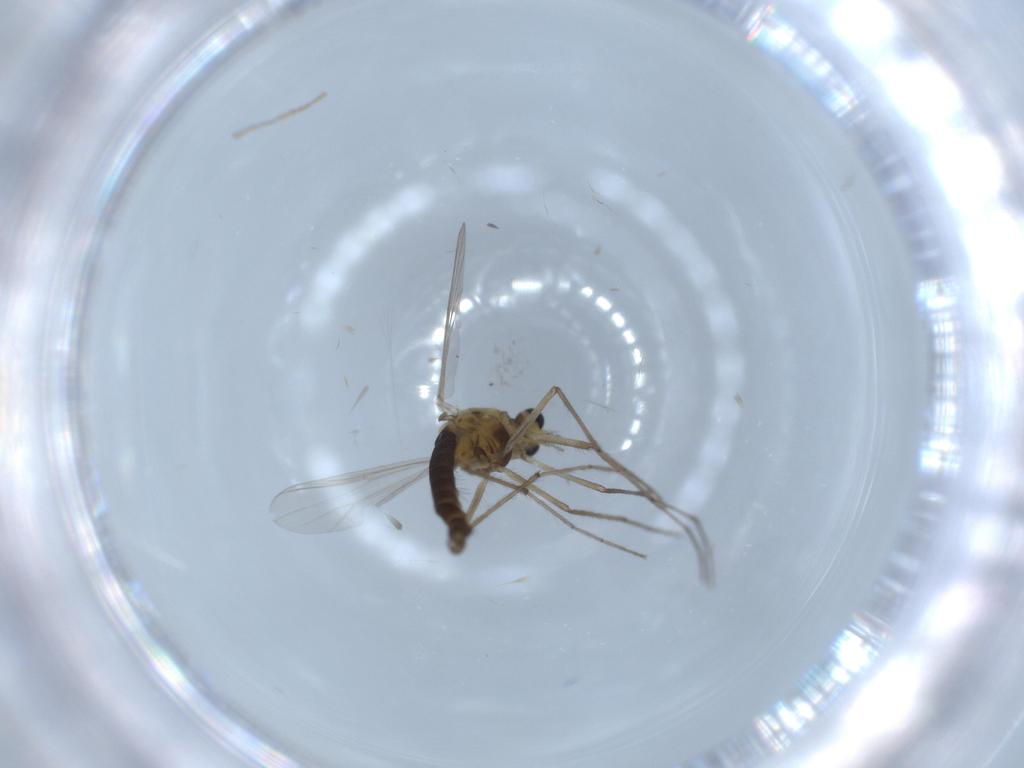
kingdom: Animalia
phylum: Arthropoda
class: Insecta
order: Diptera
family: Chironomidae
